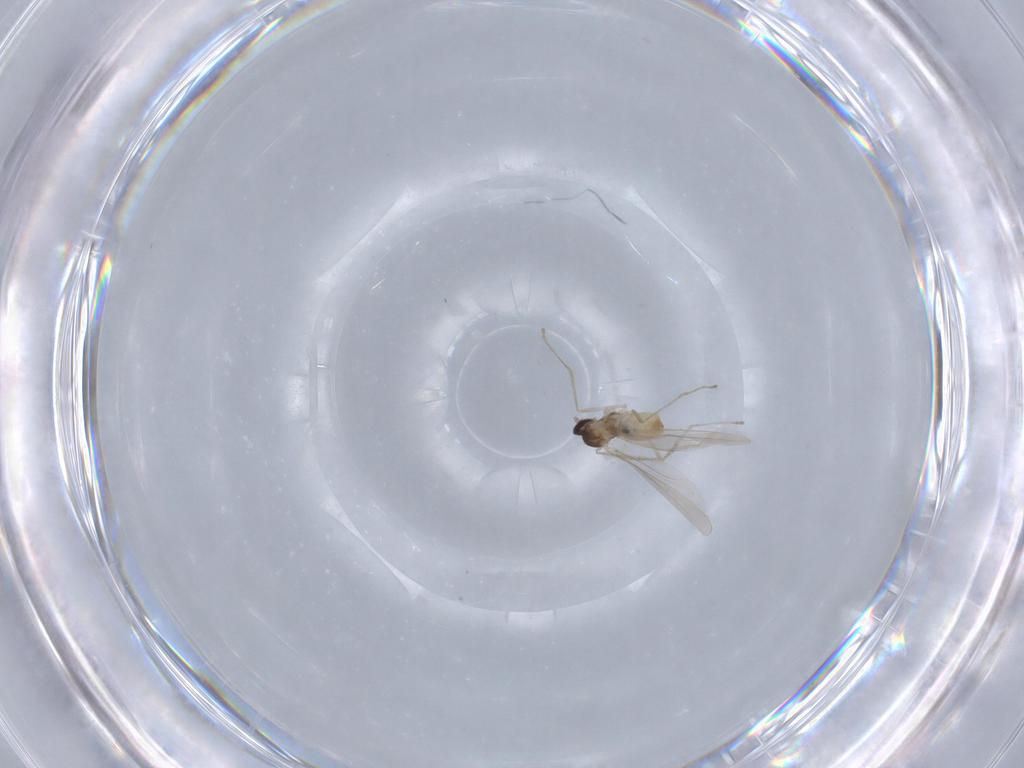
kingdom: Animalia
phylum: Arthropoda
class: Insecta
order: Diptera
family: Cecidomyiidae
